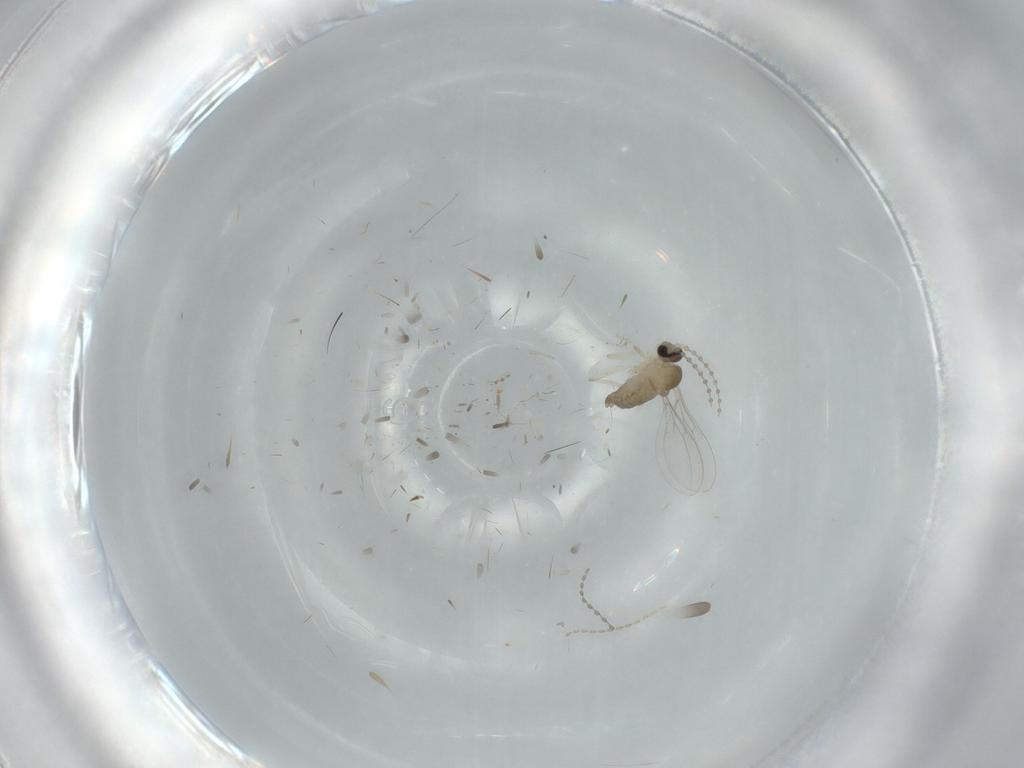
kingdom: Animalia
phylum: Arthropoda
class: Insecta
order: Diptera
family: Cecidomyiidae
